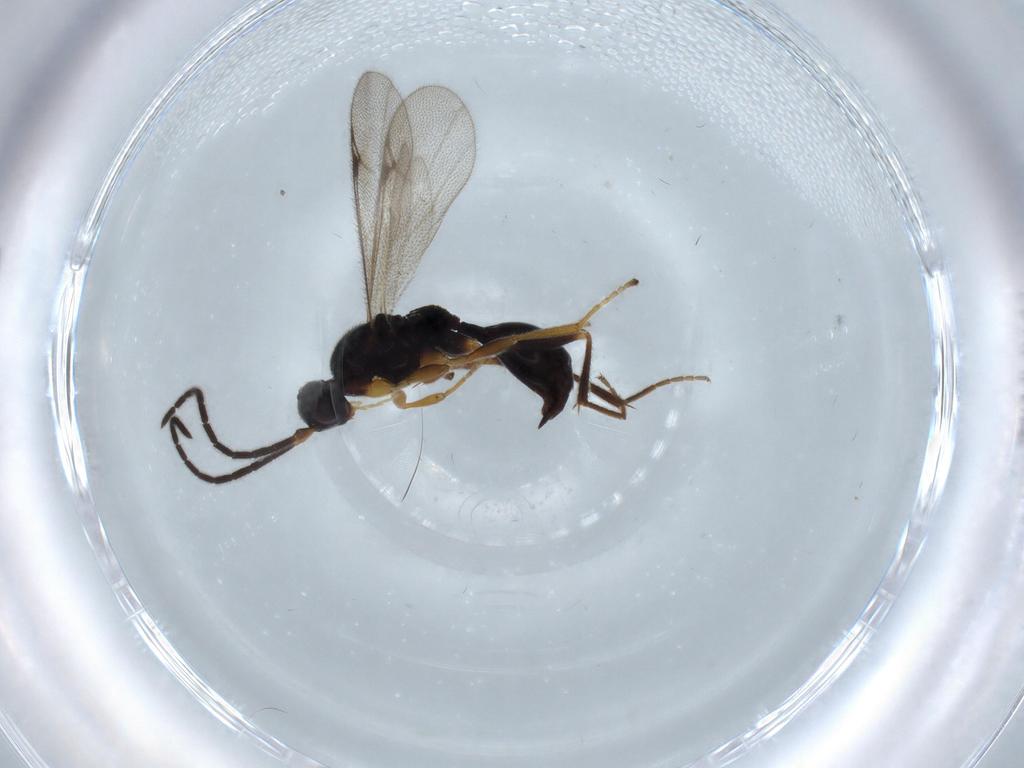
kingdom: Animalia
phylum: Arthropoda
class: Insecta
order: Hymenoptera
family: Proctotrupidae
